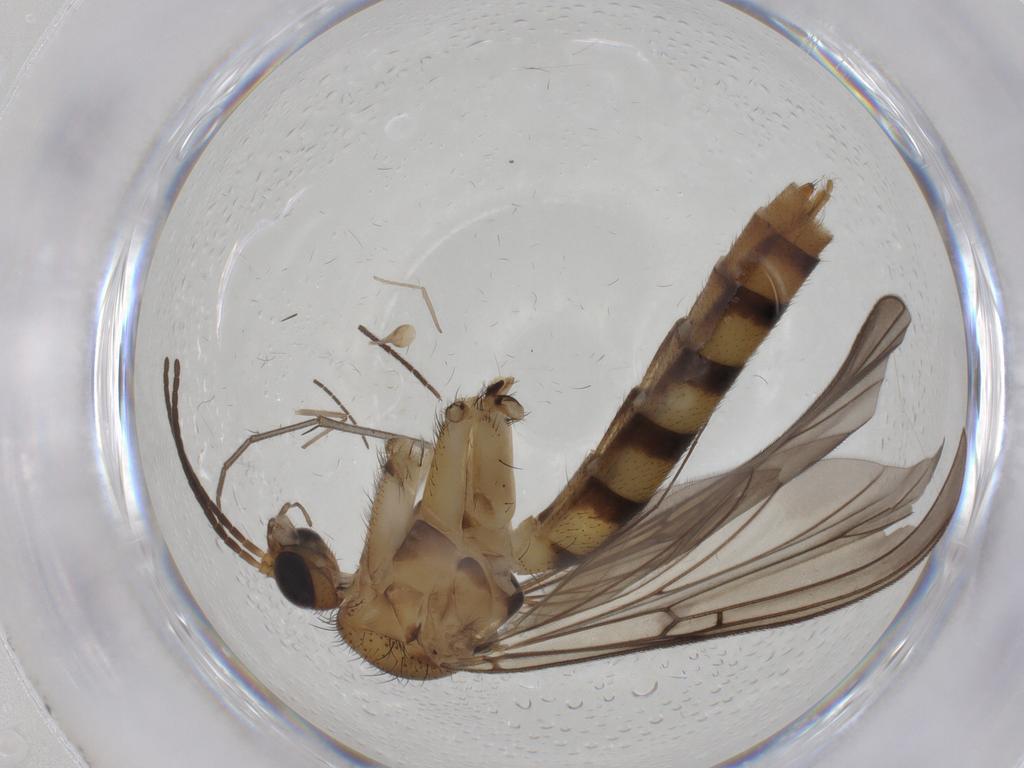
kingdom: Animalia
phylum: Arthropoda
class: Insecta
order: Diptera
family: Mycetophilidae
